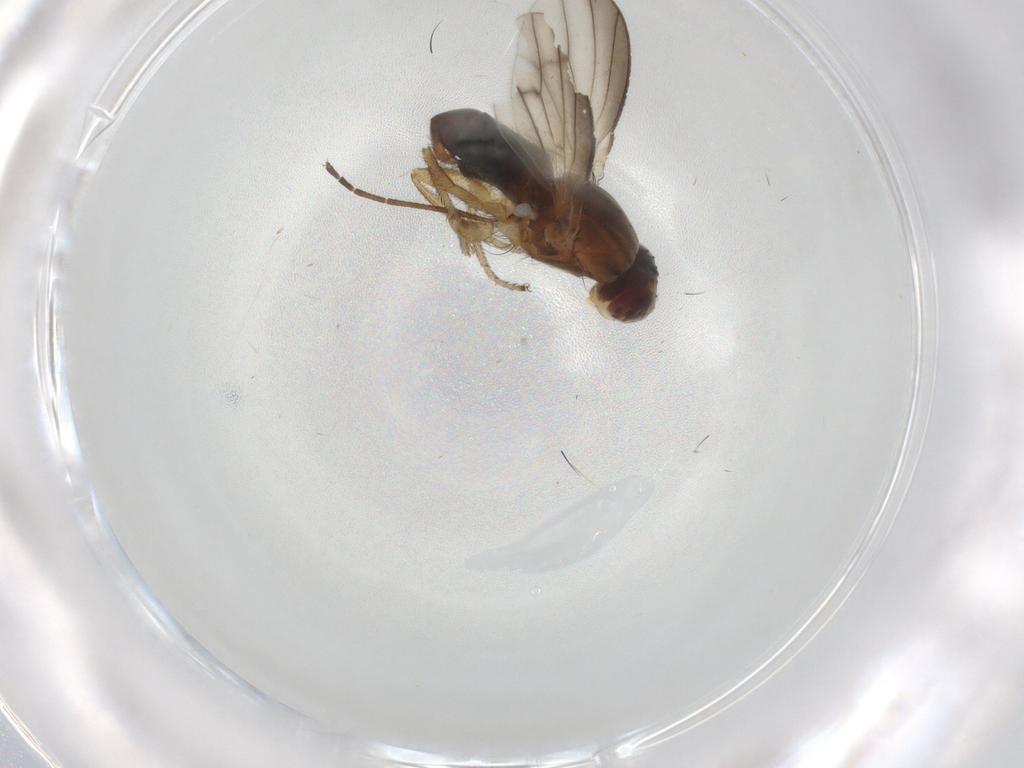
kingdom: Animalia
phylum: Arthropoda
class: Insecta
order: Diptera
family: Heleomyzidae
